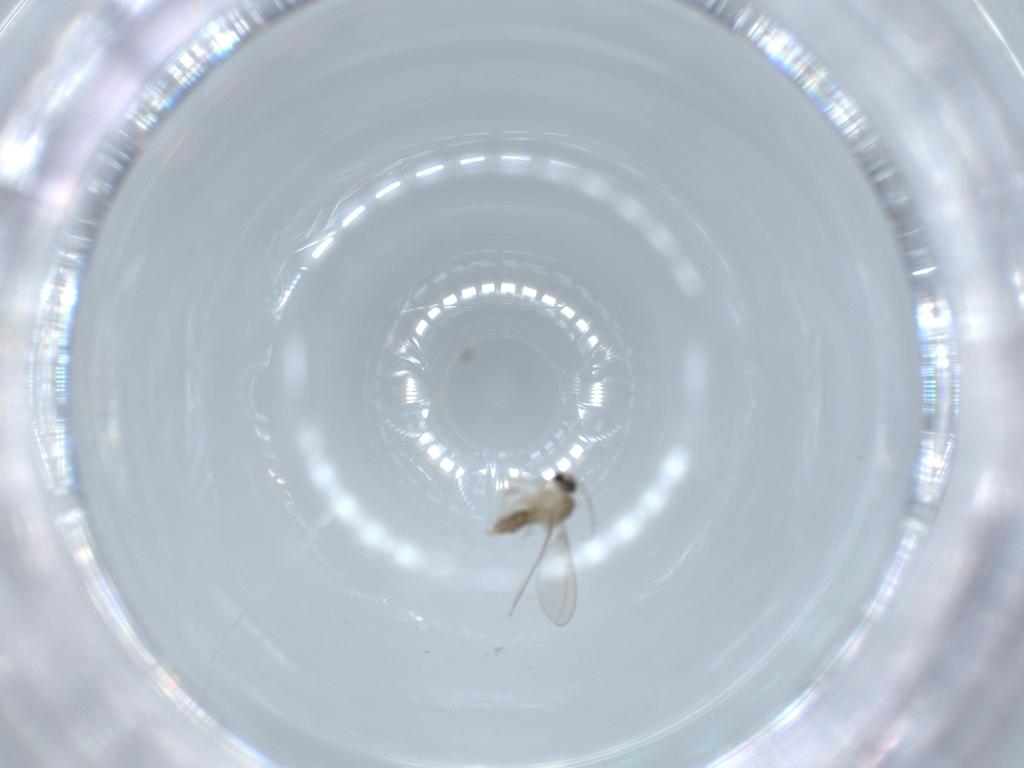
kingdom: Animalia
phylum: Arthropoda
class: Insecta
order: Diptera
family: Cecidomyiidae
